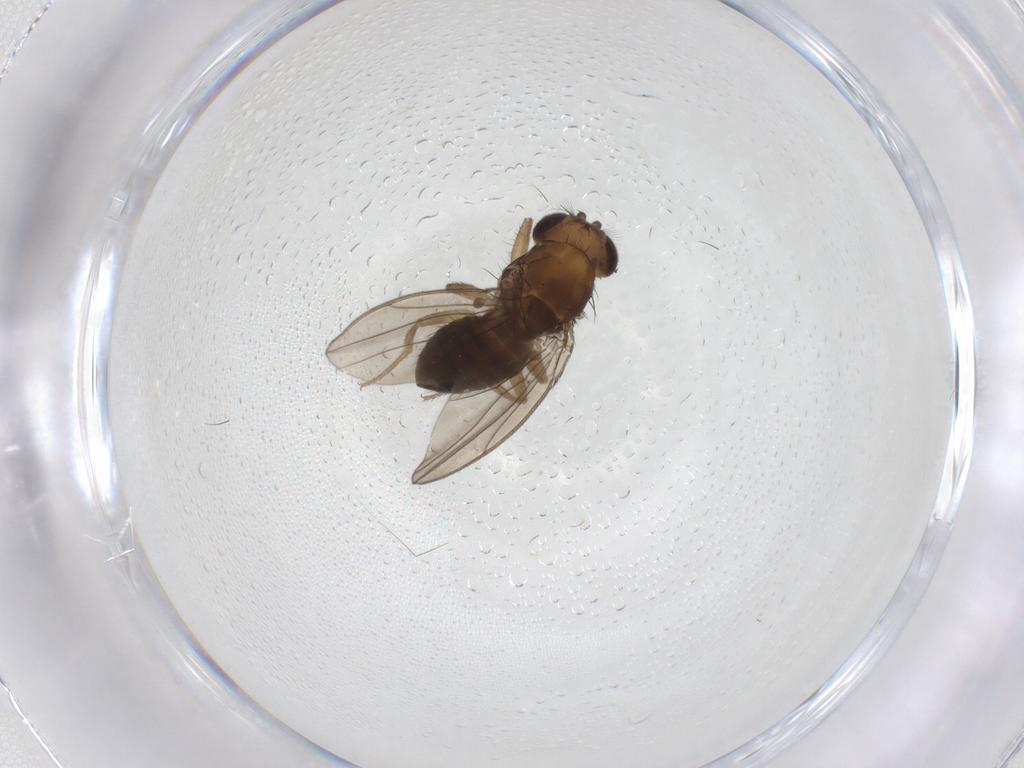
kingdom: Animalia
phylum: Arthropoda
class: Insecta
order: Diptera
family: Dolichopodidae
